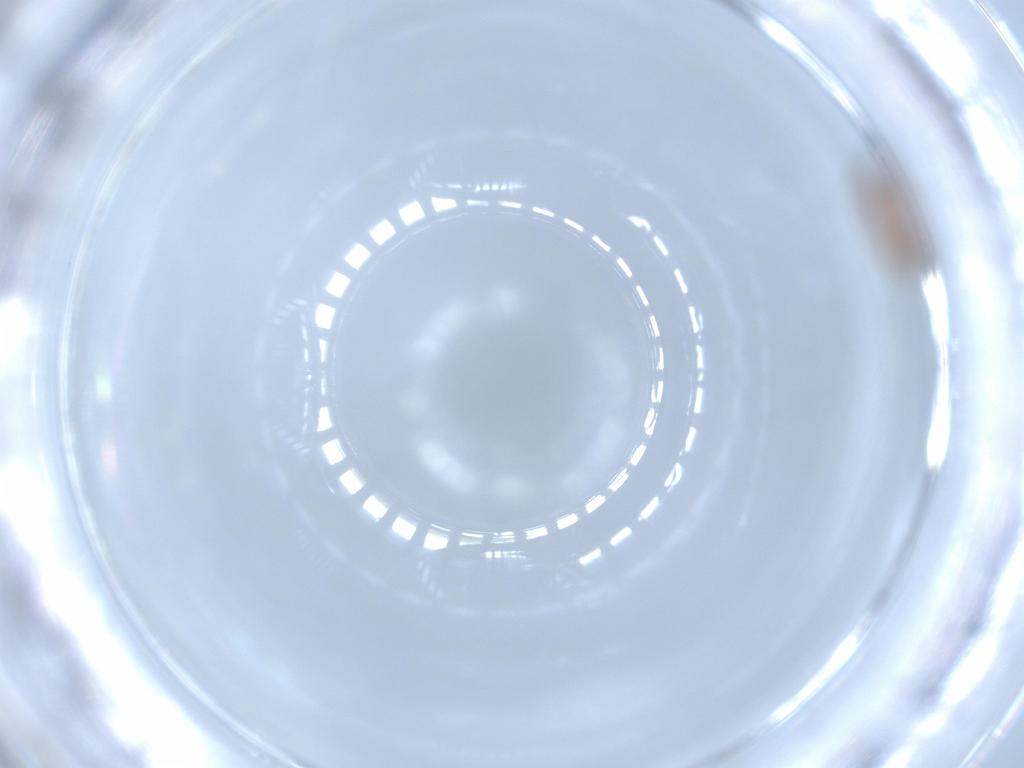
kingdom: Animalia
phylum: Arthropoda
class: Insecta
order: Thysanoptera
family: Phlaeothripidae
